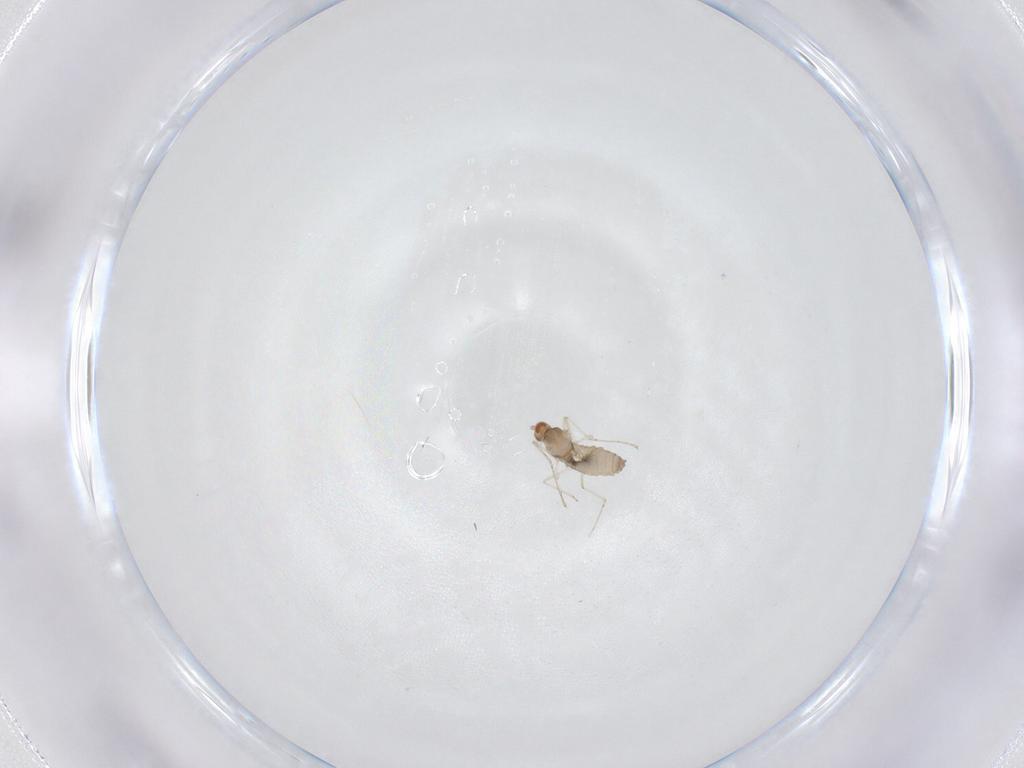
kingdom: Animalia
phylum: Arthropoda
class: Insecta
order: Diptera
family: Cecidomyiidae
